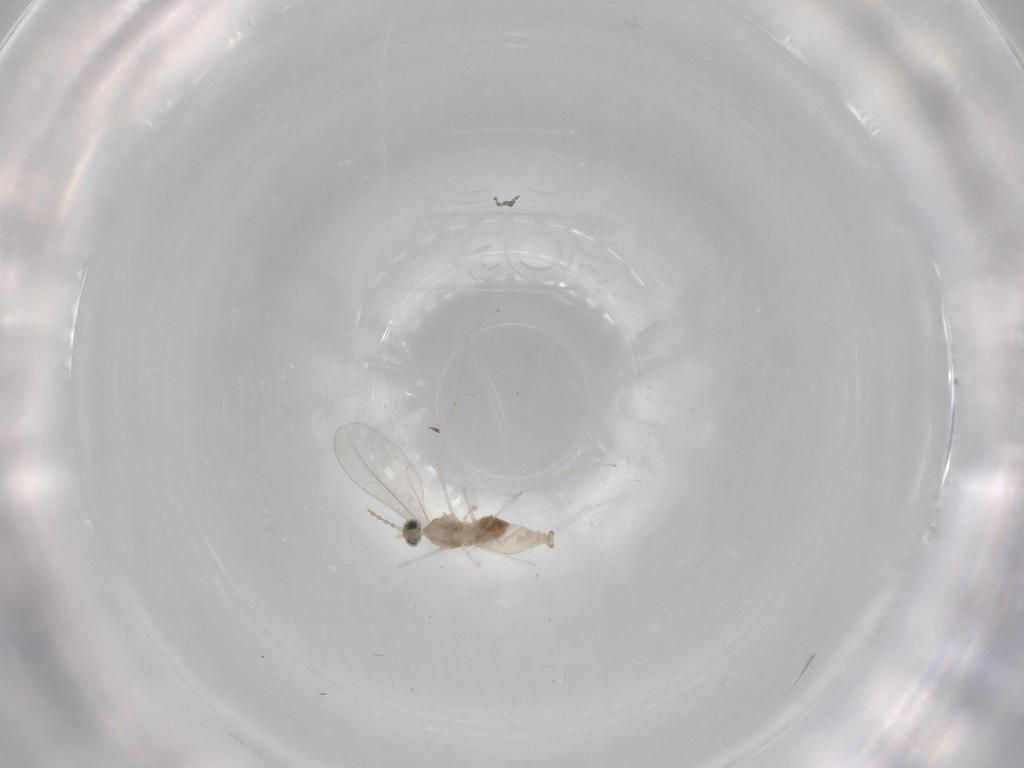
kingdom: Animalia
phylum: Arthropoda
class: Insecta
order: Diptera
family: Cecidomyiidae
